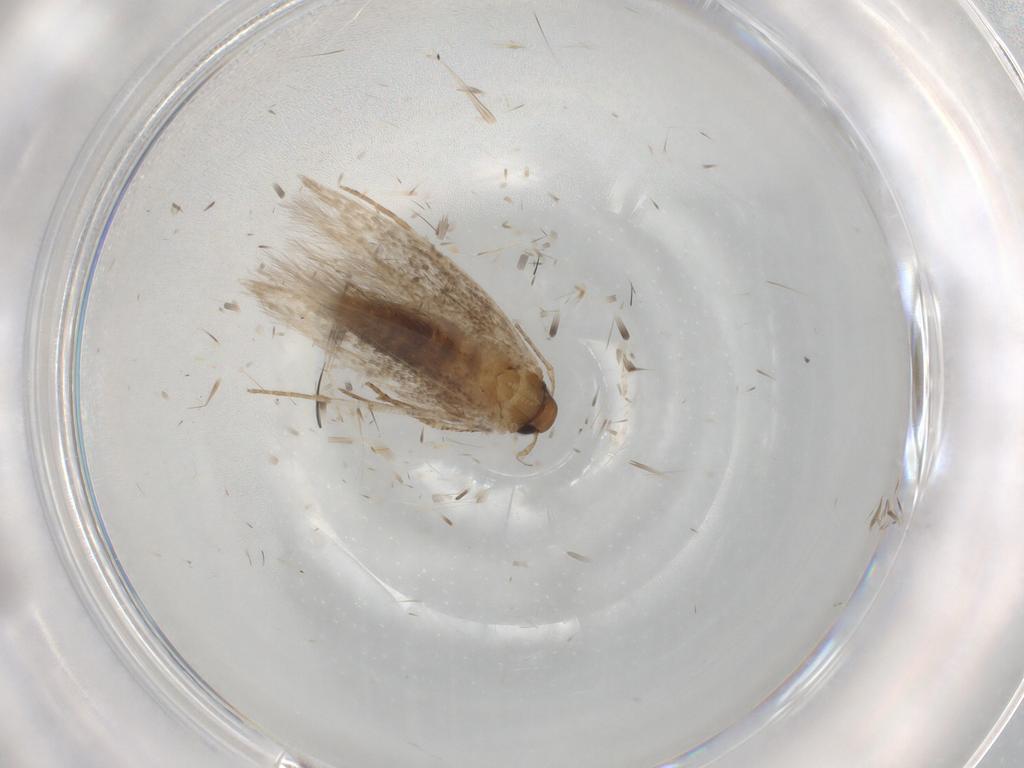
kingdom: Animalia
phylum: Arthropoda
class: Insecta
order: Lepidoptera
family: Cosmopterigidae
